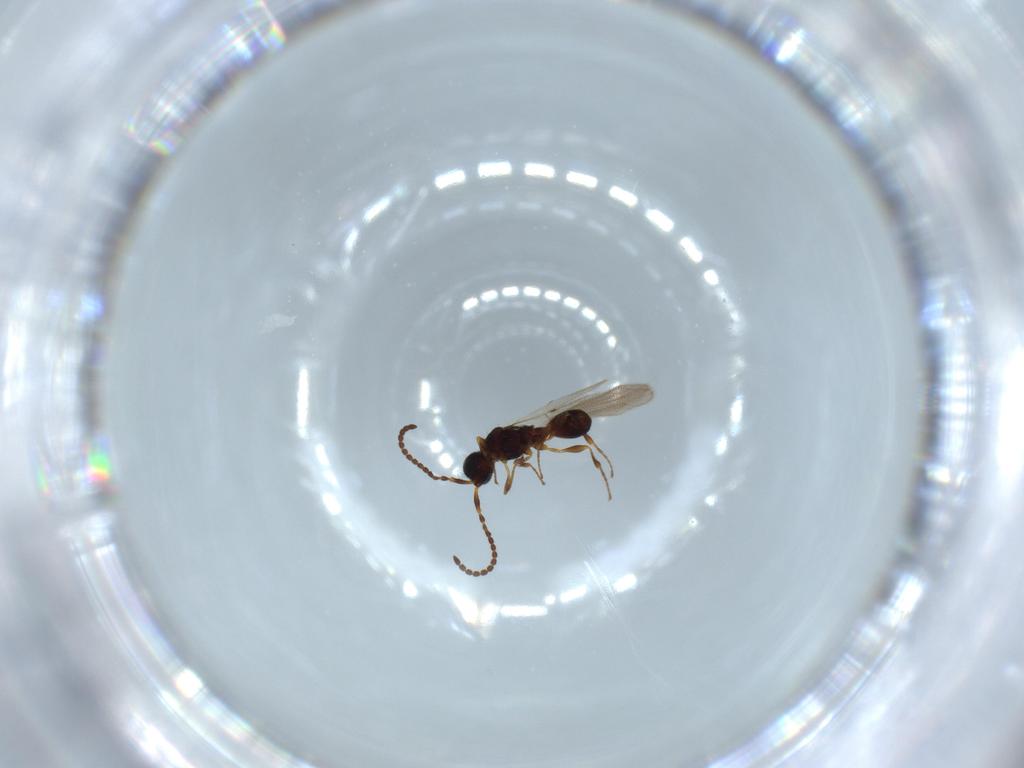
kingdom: Animalia
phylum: Arthropoda
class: Insecta
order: Hymenoptera
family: Diapriidae
